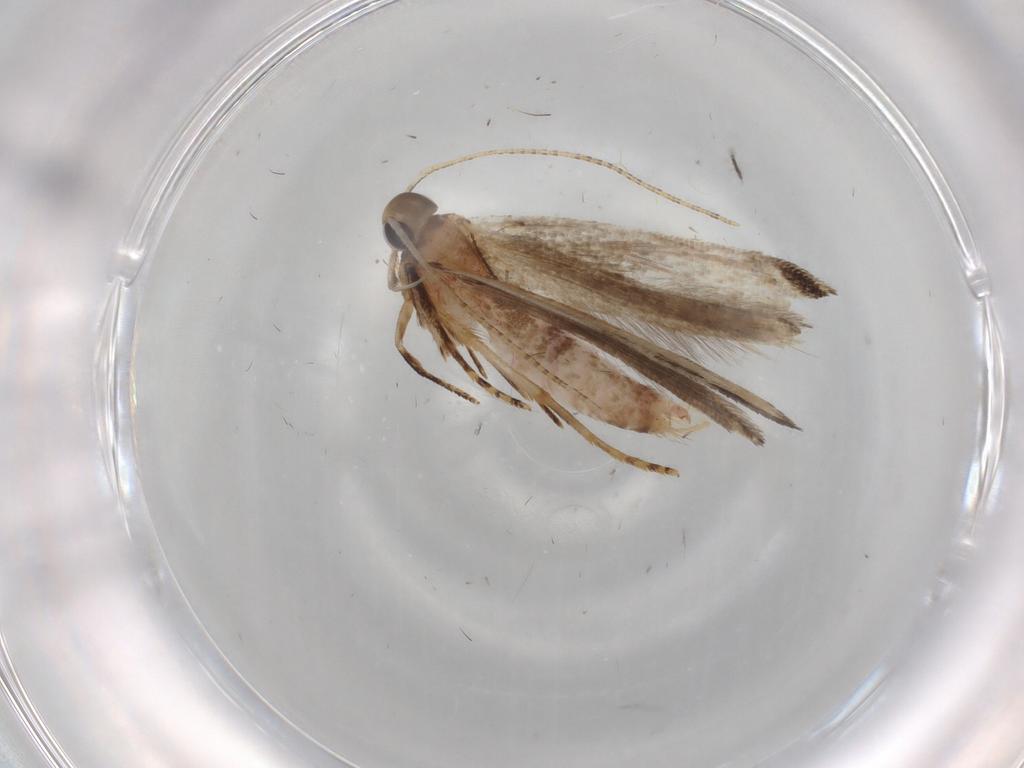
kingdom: Animalia
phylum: Arthropoda
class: Insecta
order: Lepidoptera
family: Gelechiidae
